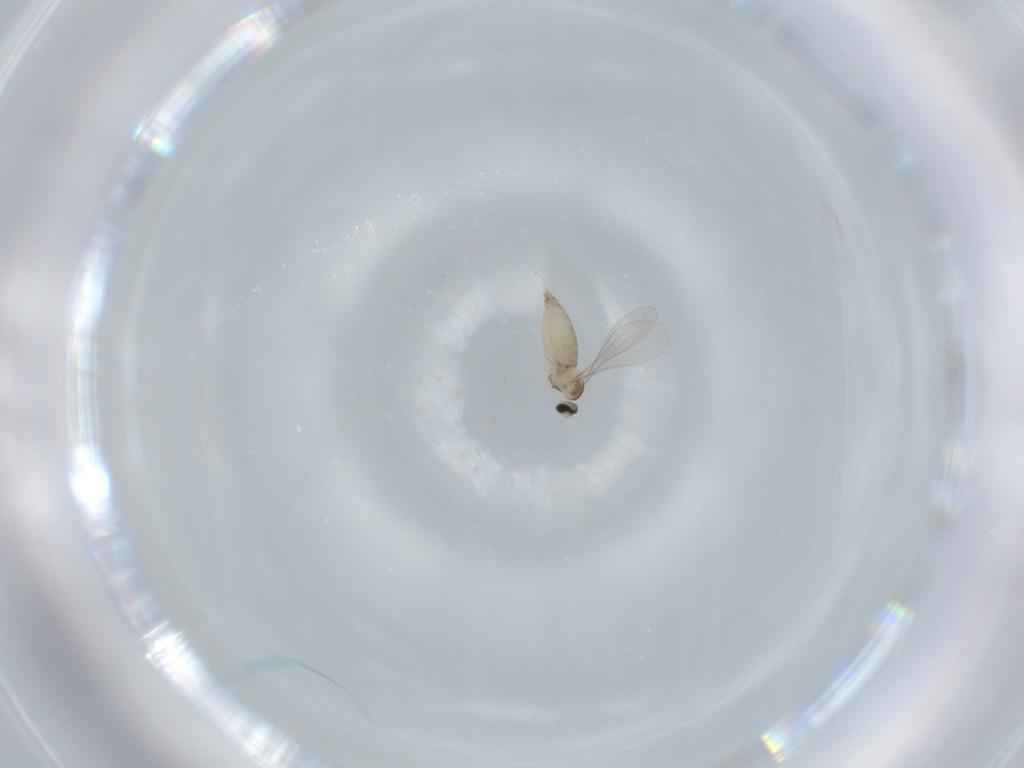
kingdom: Animalia
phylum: Arthropoda
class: Insecta
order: Diptera
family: Psychodidae
